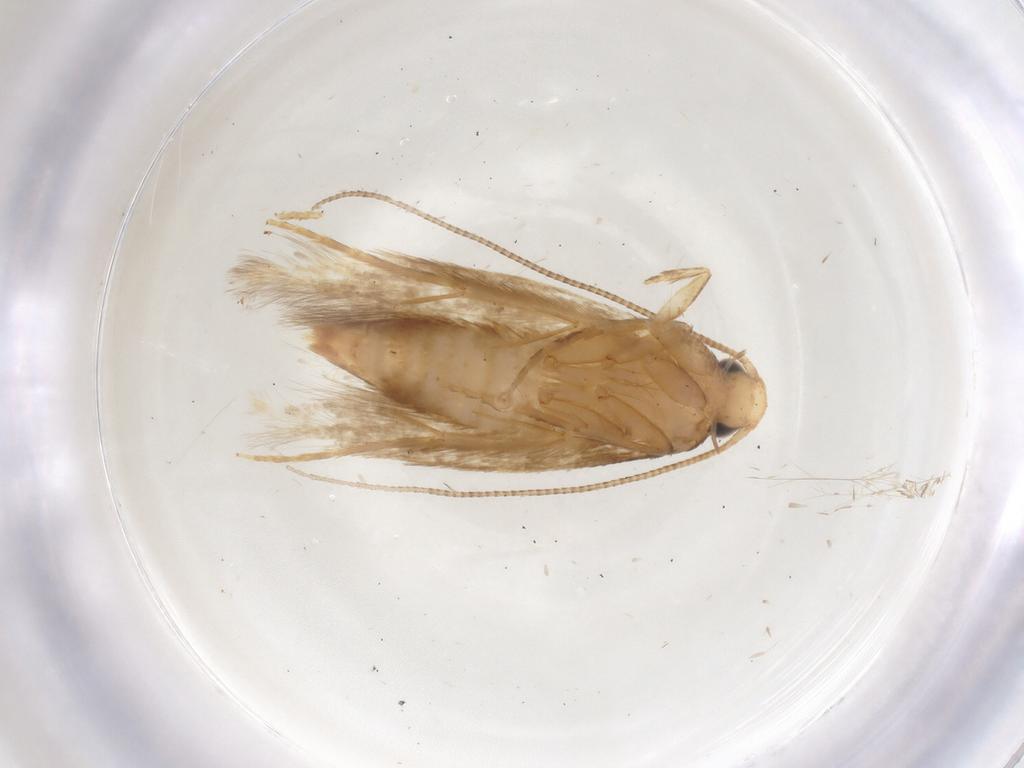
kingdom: Animalia
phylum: Arthropoda
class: Insecta
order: Lepidoptera
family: Tineidae
